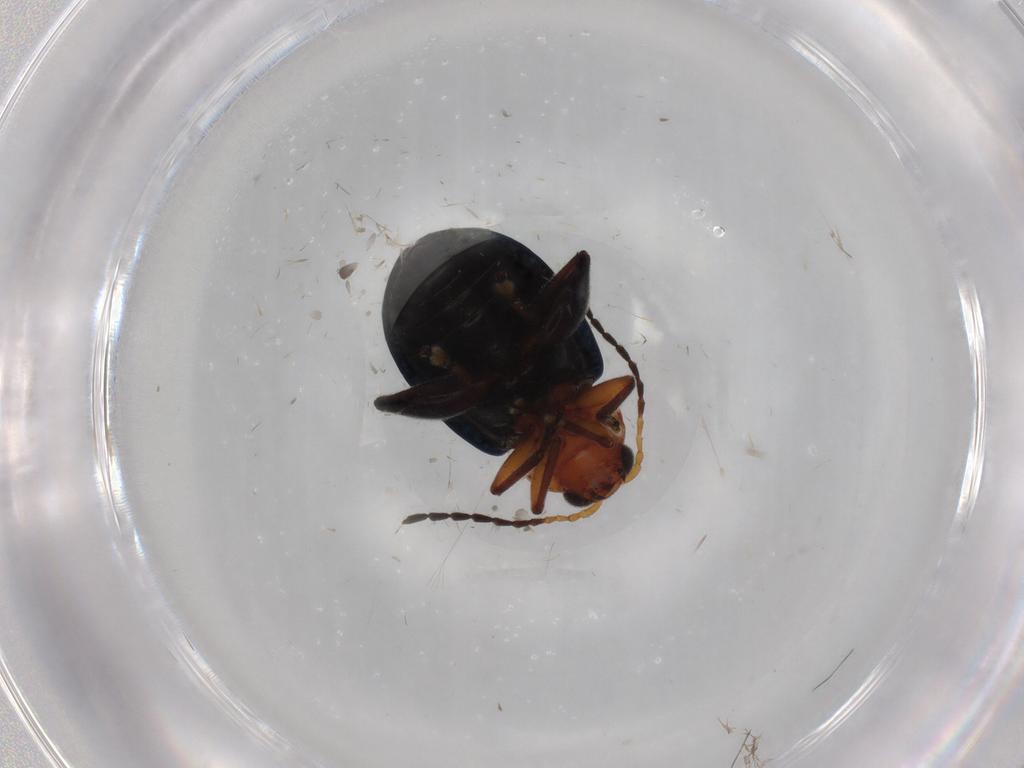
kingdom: Animalia
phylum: Arthropoda
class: Insecta
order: Coleoptera
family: Chrysomelidae
